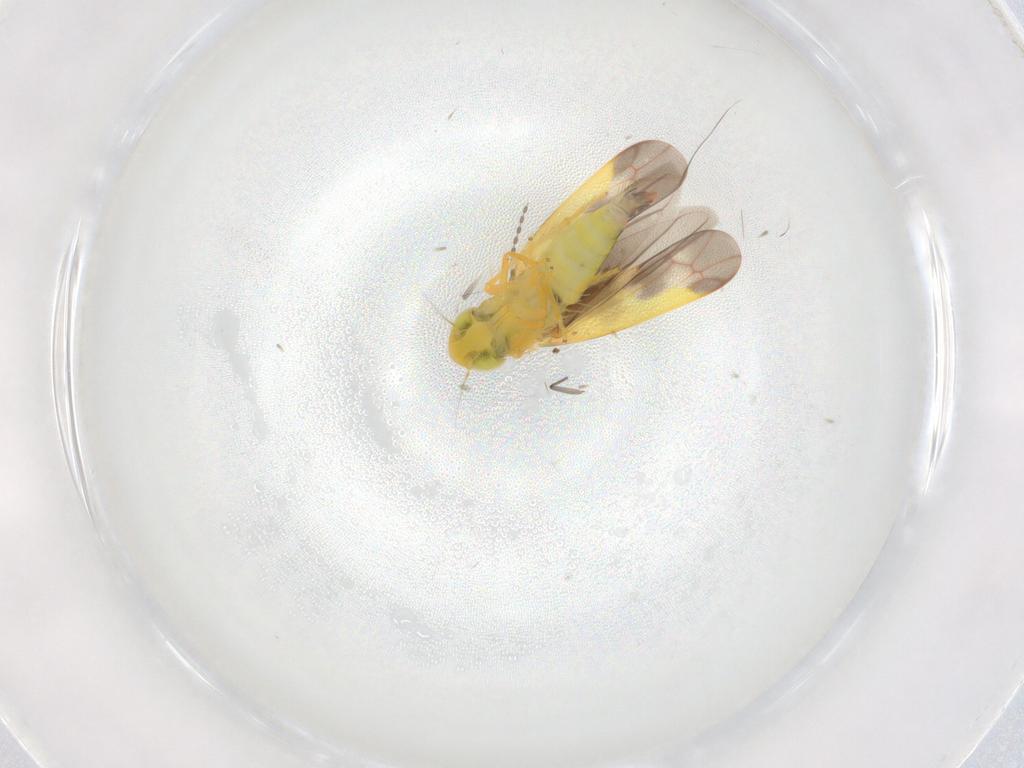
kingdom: Animalia
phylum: Arthropoda
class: Insecta
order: Hemiptera
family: Cicadellidae
